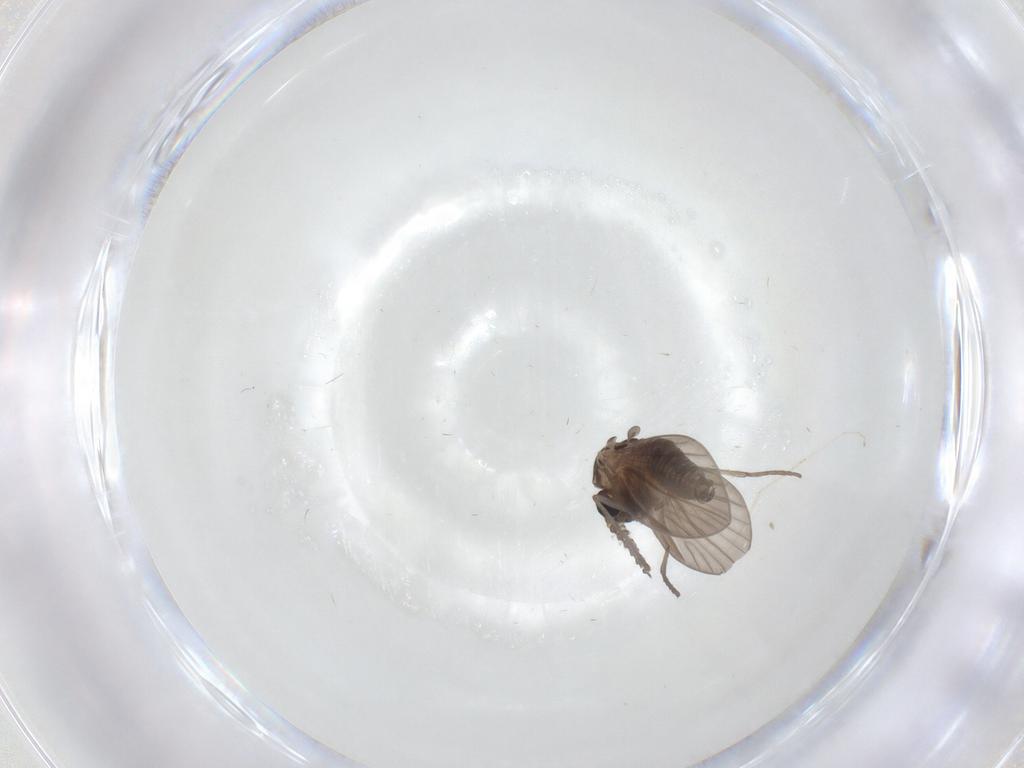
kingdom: Animalia
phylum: Arthropoda
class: Insecta
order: Diptera
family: Psychodidae
